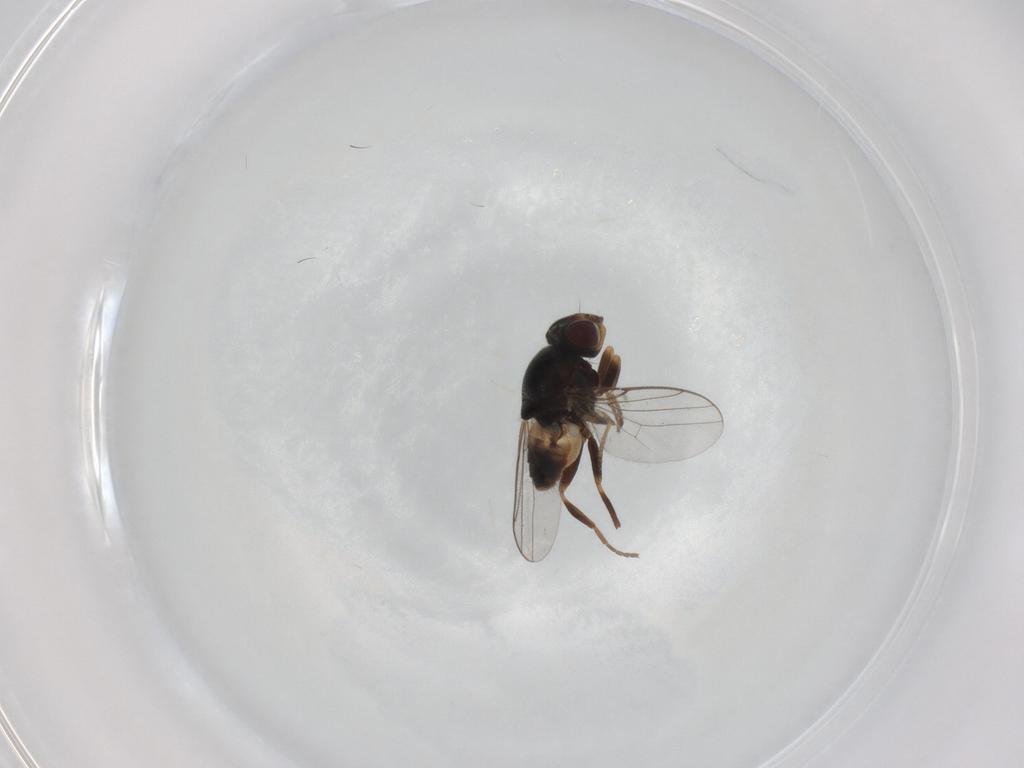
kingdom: Animalia
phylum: Arthropoda
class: Insecta
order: Diptera
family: Chloropidae
